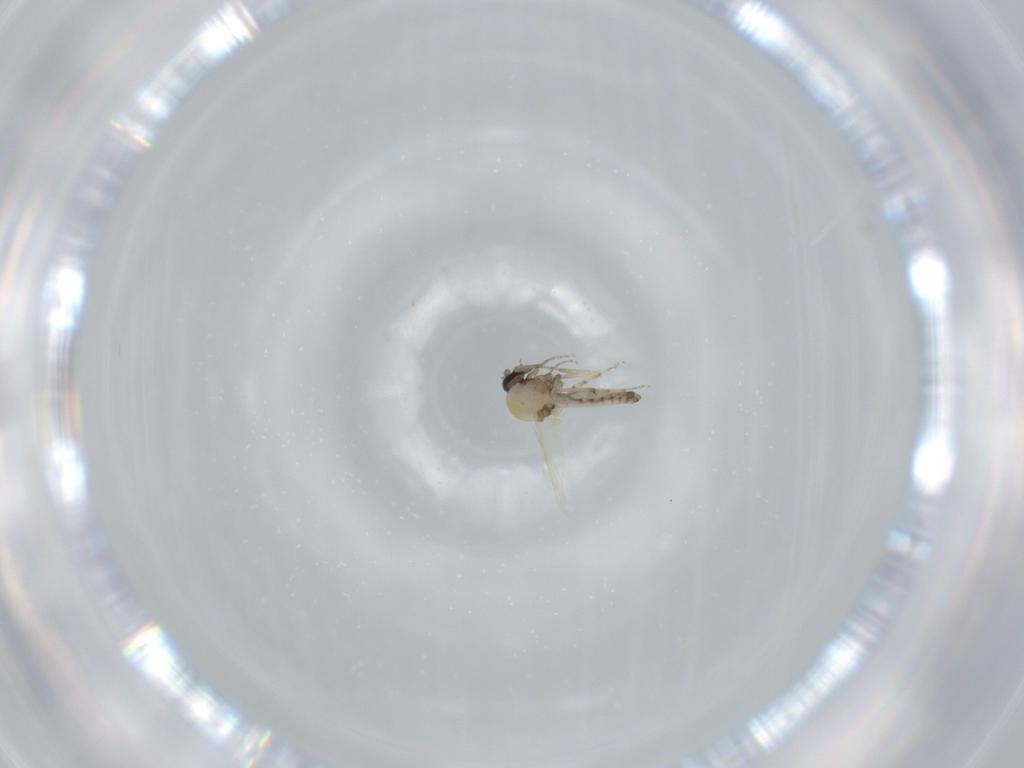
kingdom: Animalia
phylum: Arthropoda
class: Insecta
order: Diptera
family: Ceratopogonidae
